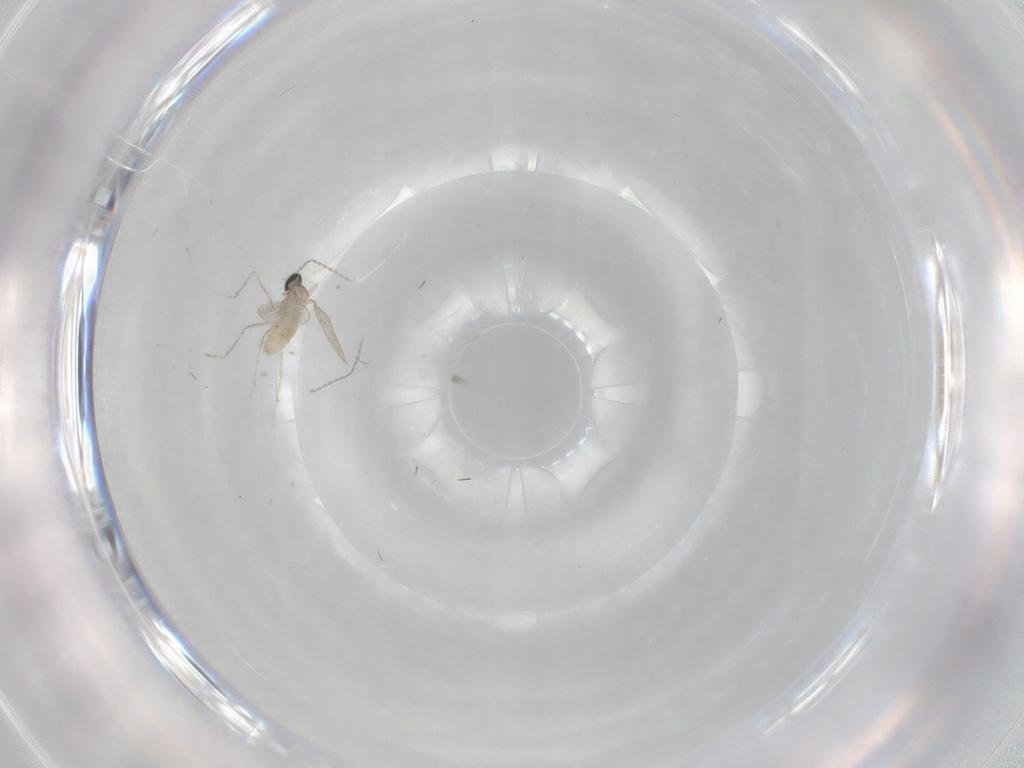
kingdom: Animalia
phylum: Arthropoda
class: Insecta
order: Diptera
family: Cecidomyiidae
